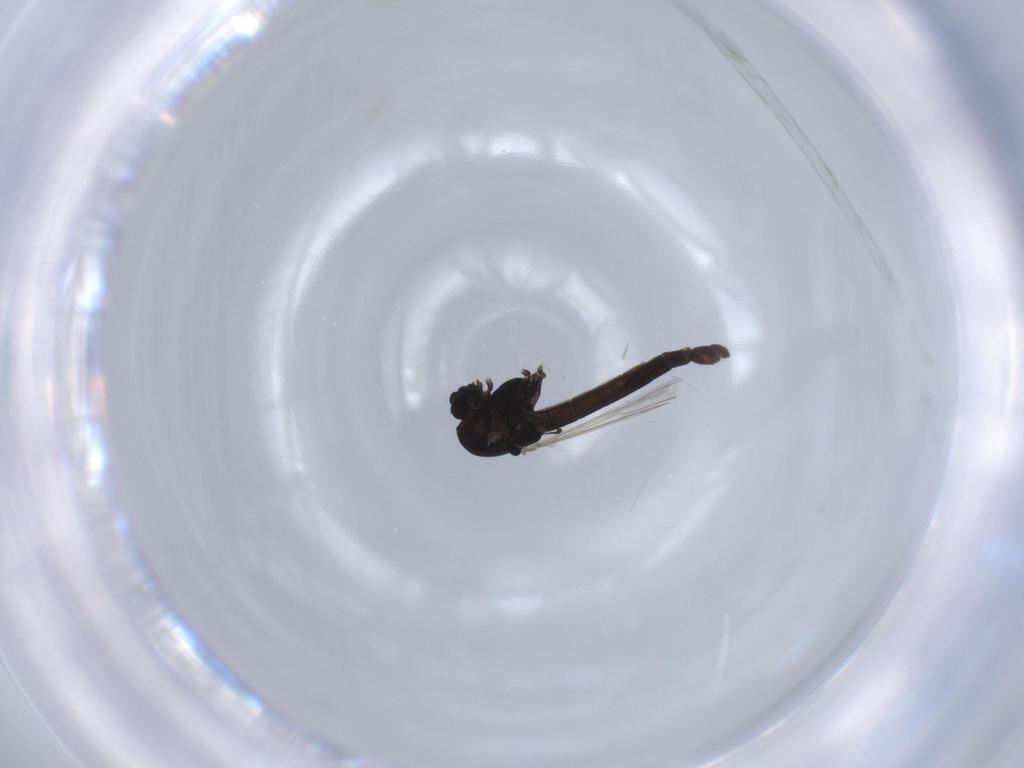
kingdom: Animalia
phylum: Arthropoda
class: Insecta
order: Diptera
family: Chironomidae
